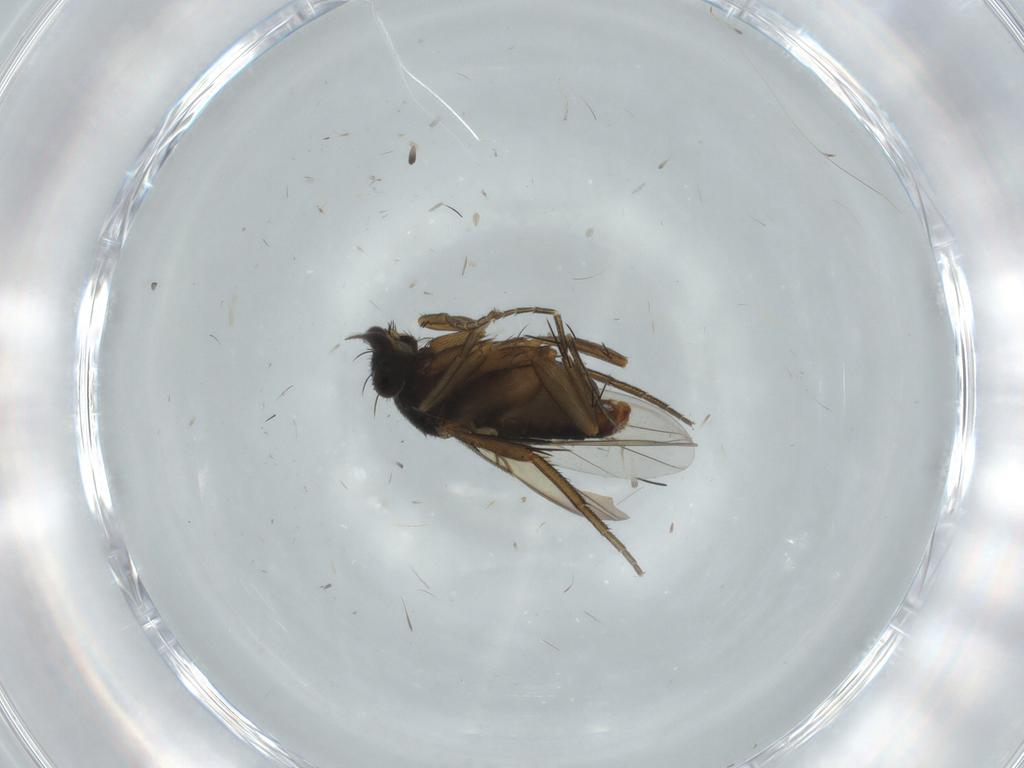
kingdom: Animalia
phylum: Arthropoda
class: Insecta
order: Diptera
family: Phoridae
